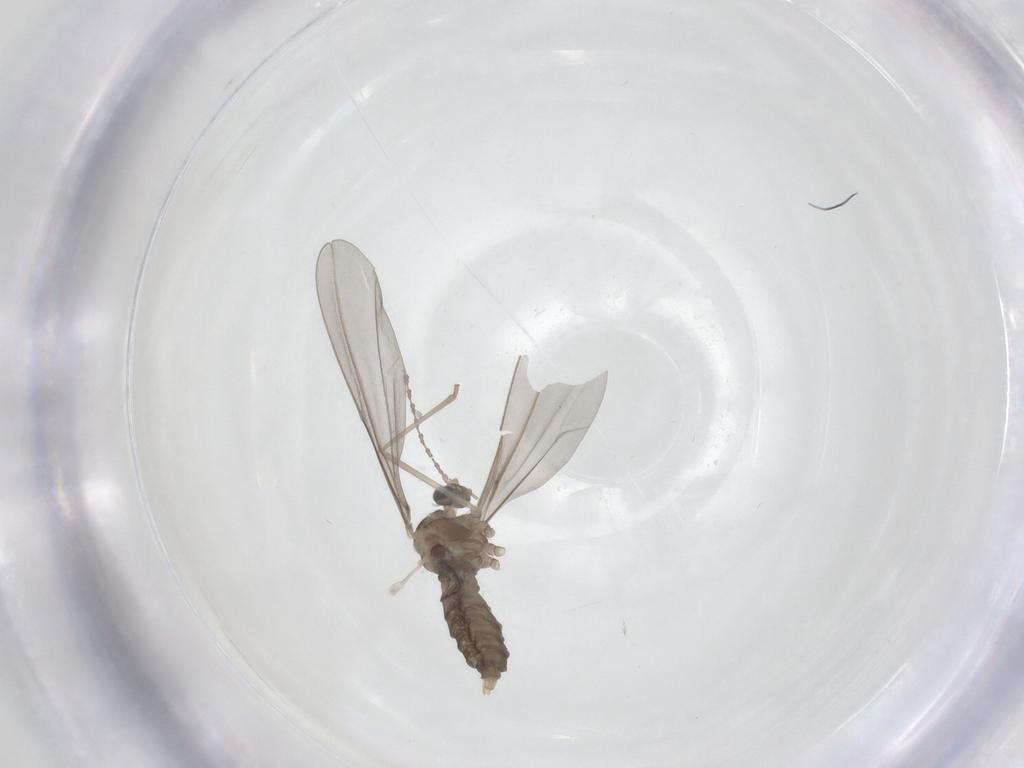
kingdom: Animalia
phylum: Arthropoda
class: Insecta
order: Diptera
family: Cecidomyiidae
